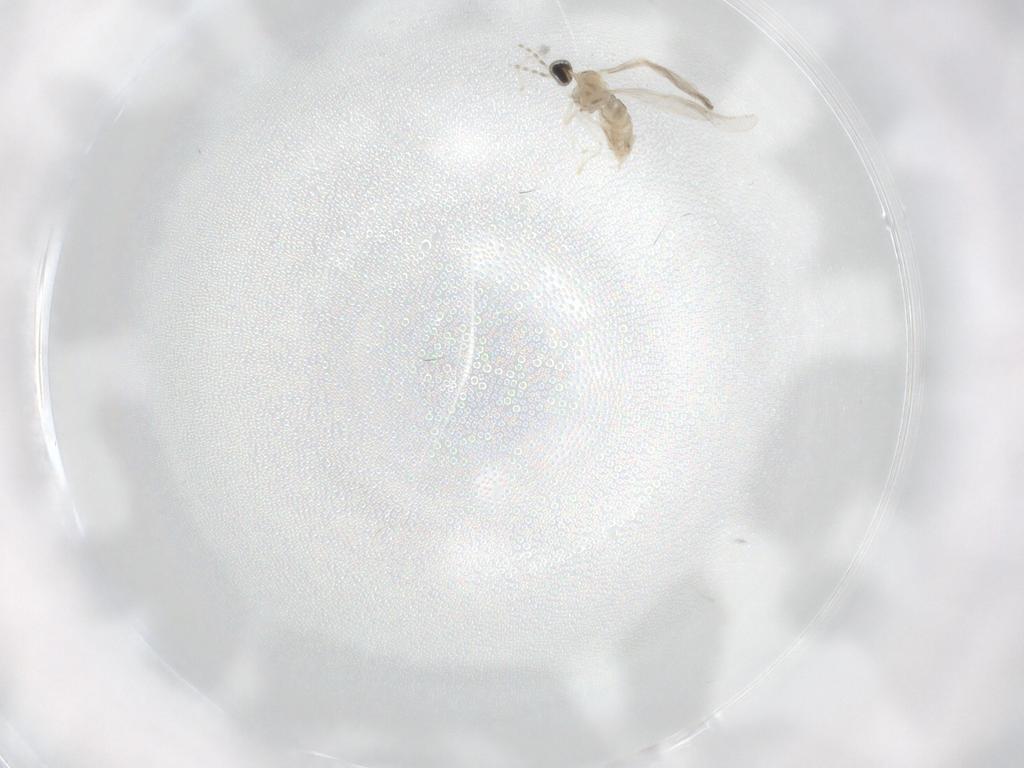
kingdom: Animalia
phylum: Arthropoda
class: Insecta
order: Diptera
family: Cecidomyiidae
